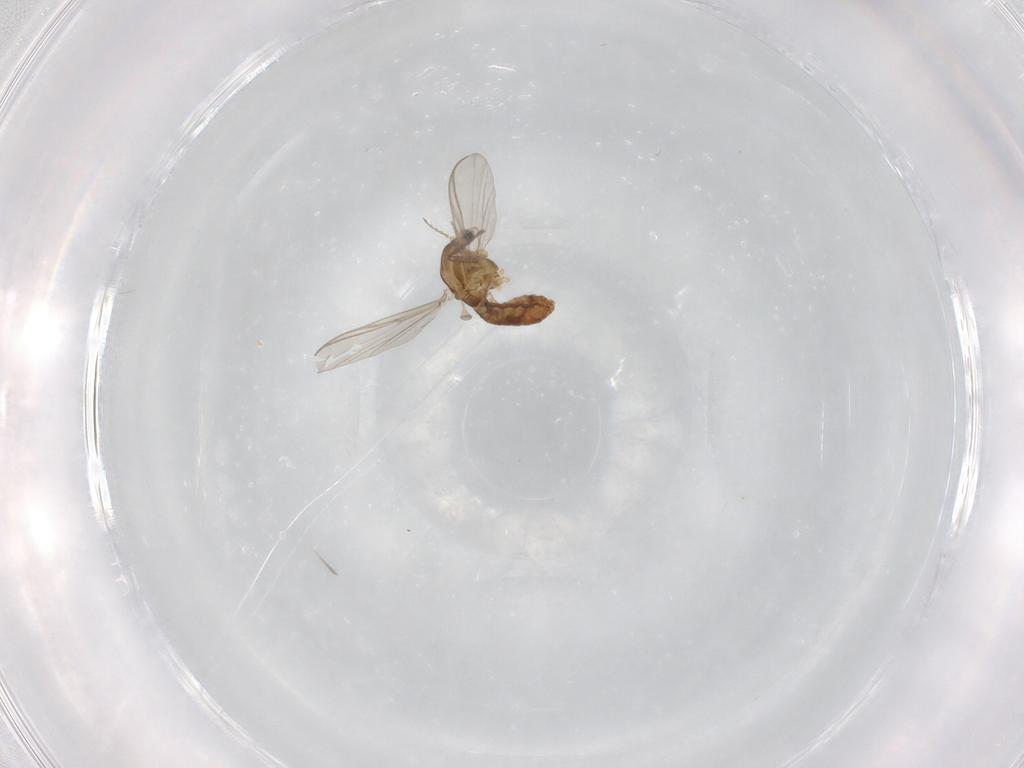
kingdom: Animalia
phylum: Arthropoda
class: Insecta
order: Diptera
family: Chironomidae
